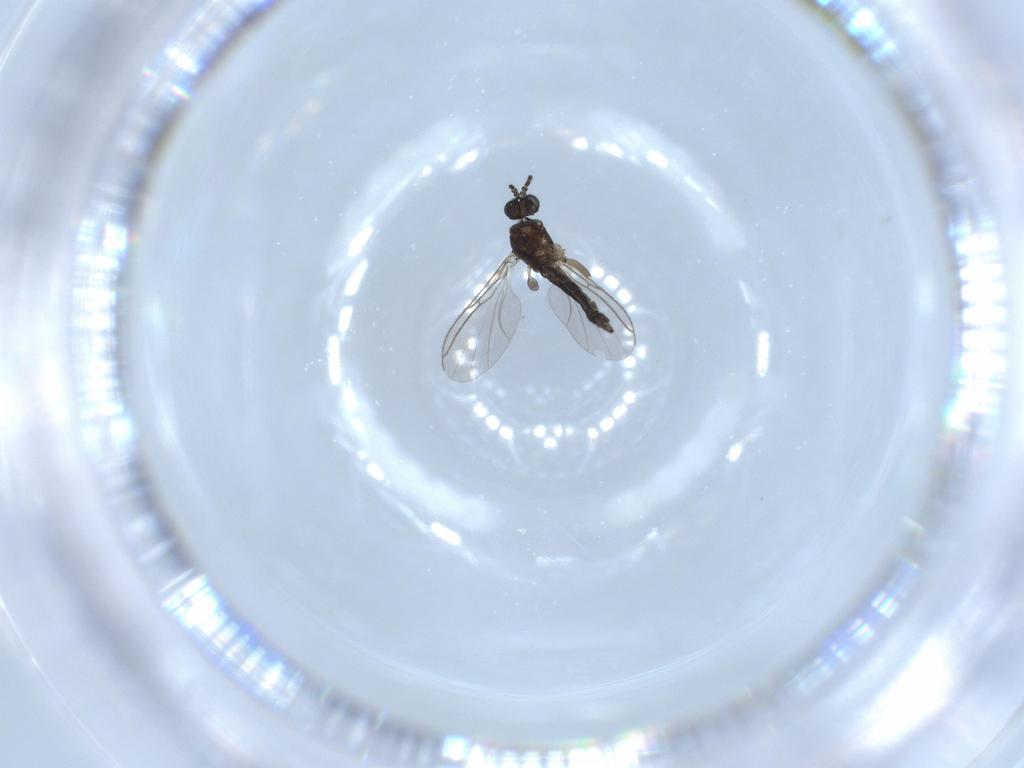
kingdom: Animalia
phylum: Arthropoda
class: Insecta
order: Diptera
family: Sciaridae
